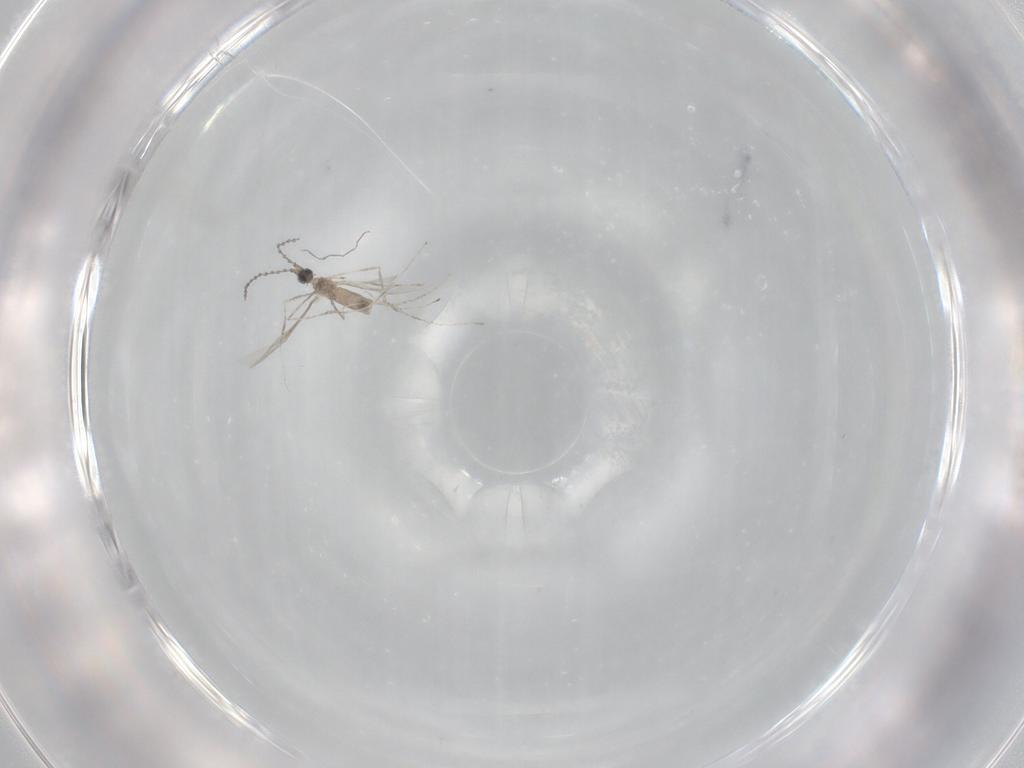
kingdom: Animalia
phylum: Arthropoda
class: Insecta
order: Diptera
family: Cecidomyiidae
